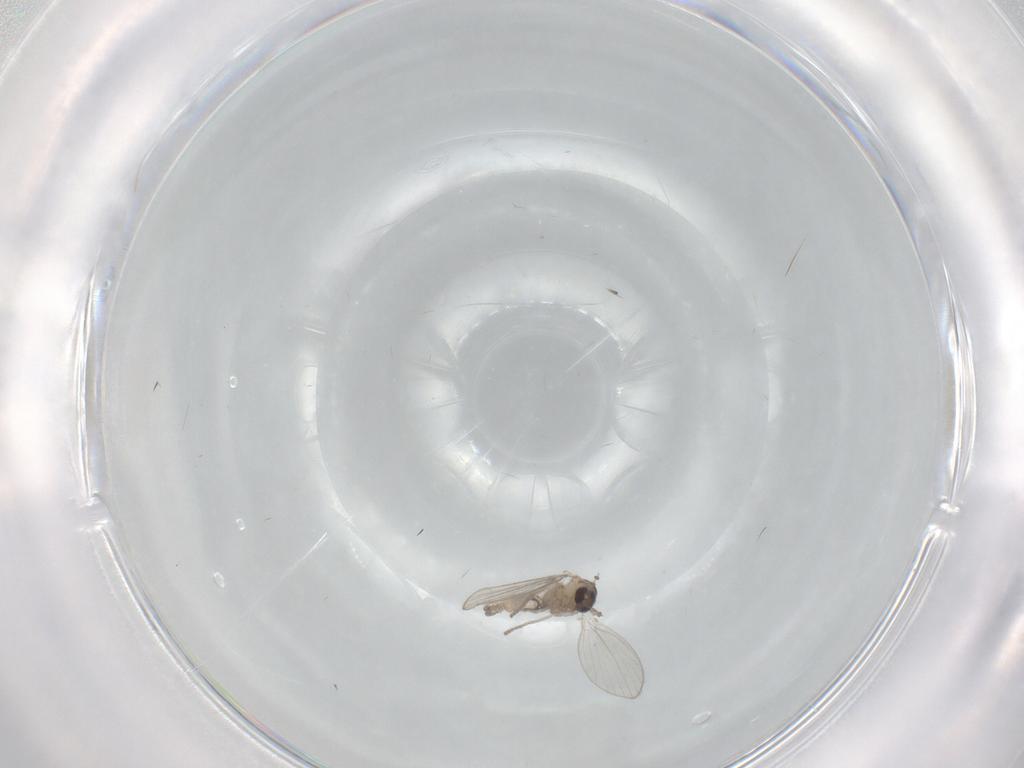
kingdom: Animalia
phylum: Arthropoda
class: Insecta
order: Diptera
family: Psychodidae
